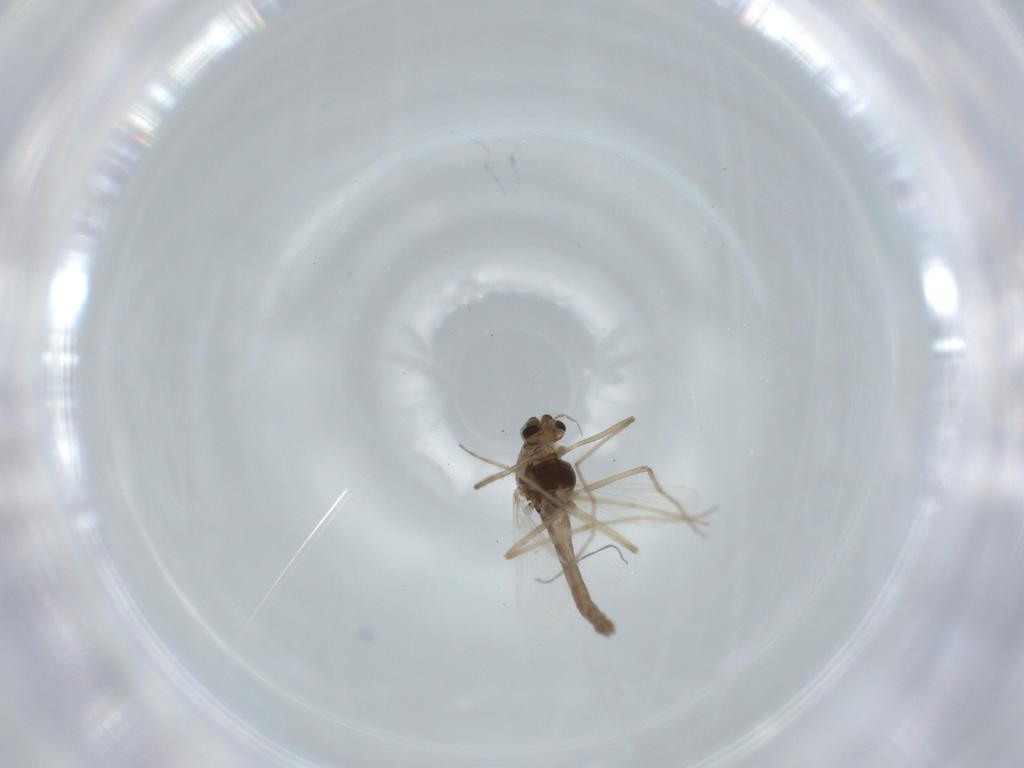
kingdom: Animalia
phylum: Arthropoda
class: Insecta
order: Diptera
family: Chironomidae
